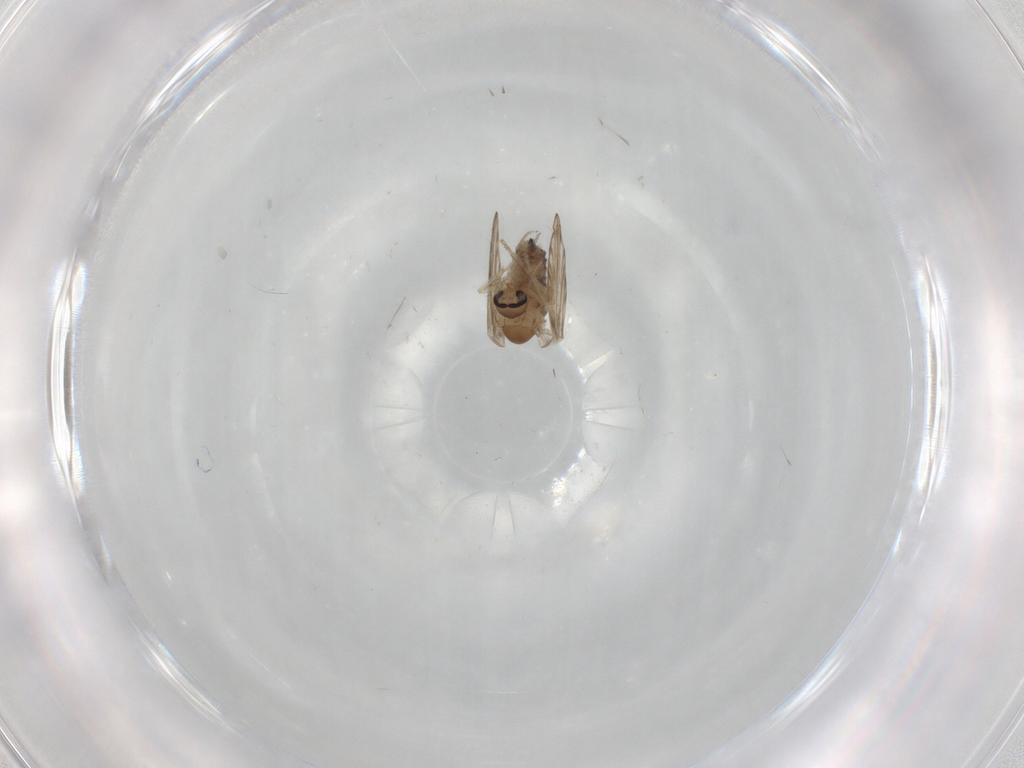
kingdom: Animalia
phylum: Arthropoda
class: Insecta
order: Diptera
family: Psychodidae
